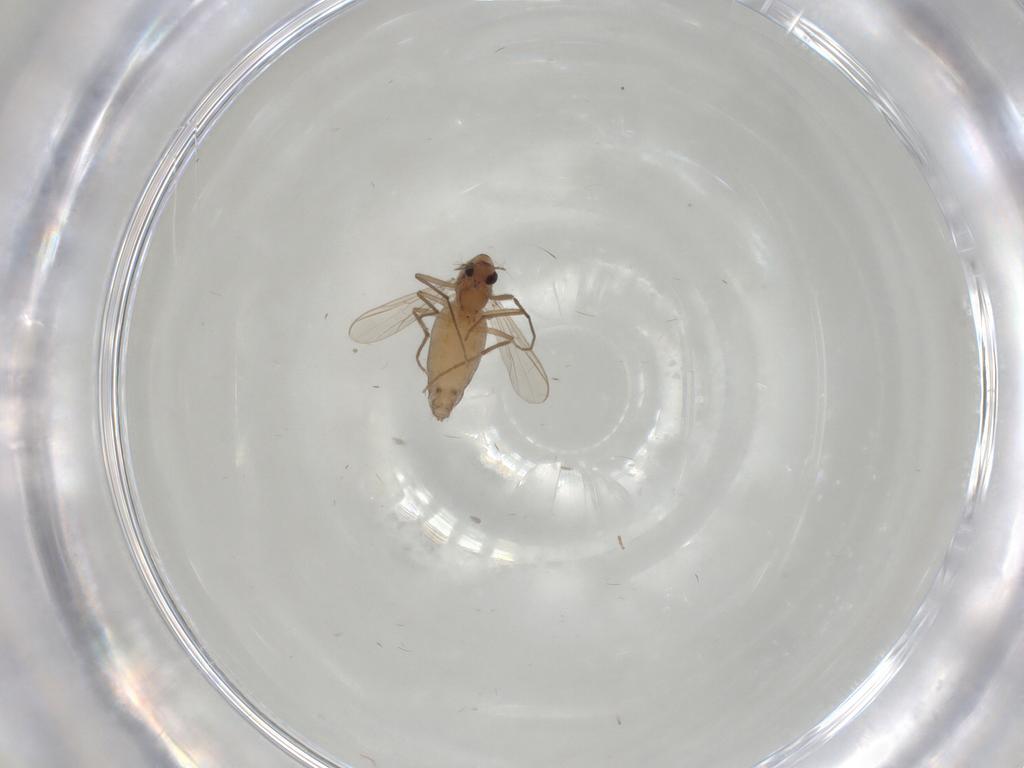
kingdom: Animalia
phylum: Arthropoda
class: Insecta
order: Diptera
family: Chironomidae
